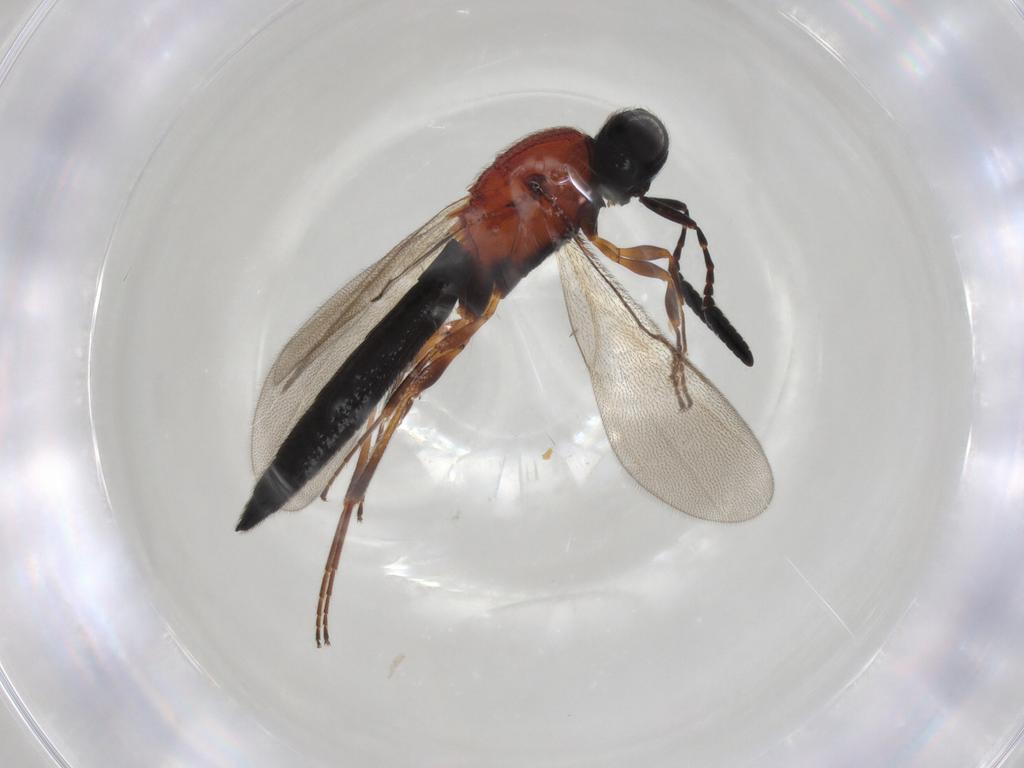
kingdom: Animalia
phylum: Arthropoda
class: Insecta
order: Hymenoptera
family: Scelionidae
